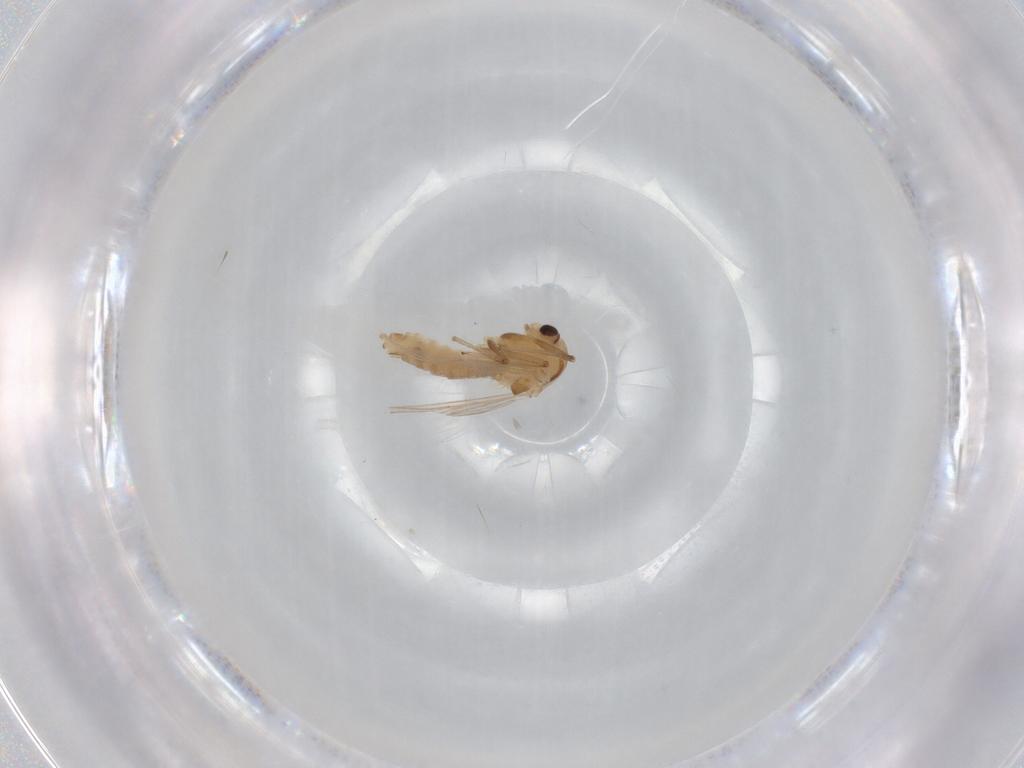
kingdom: Animalia
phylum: Arthropoda
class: Insecta
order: Diptera
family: Chironomidae
